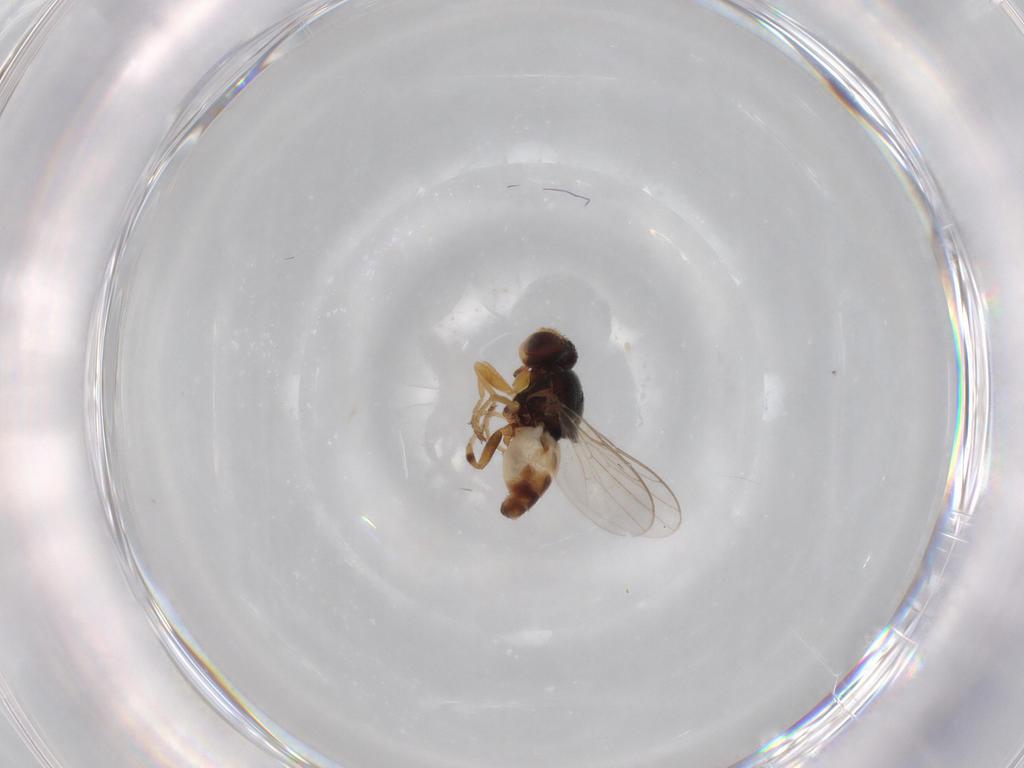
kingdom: Animalia
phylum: Arthropoda
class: Insecta
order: Diptera
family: Chloropidae
